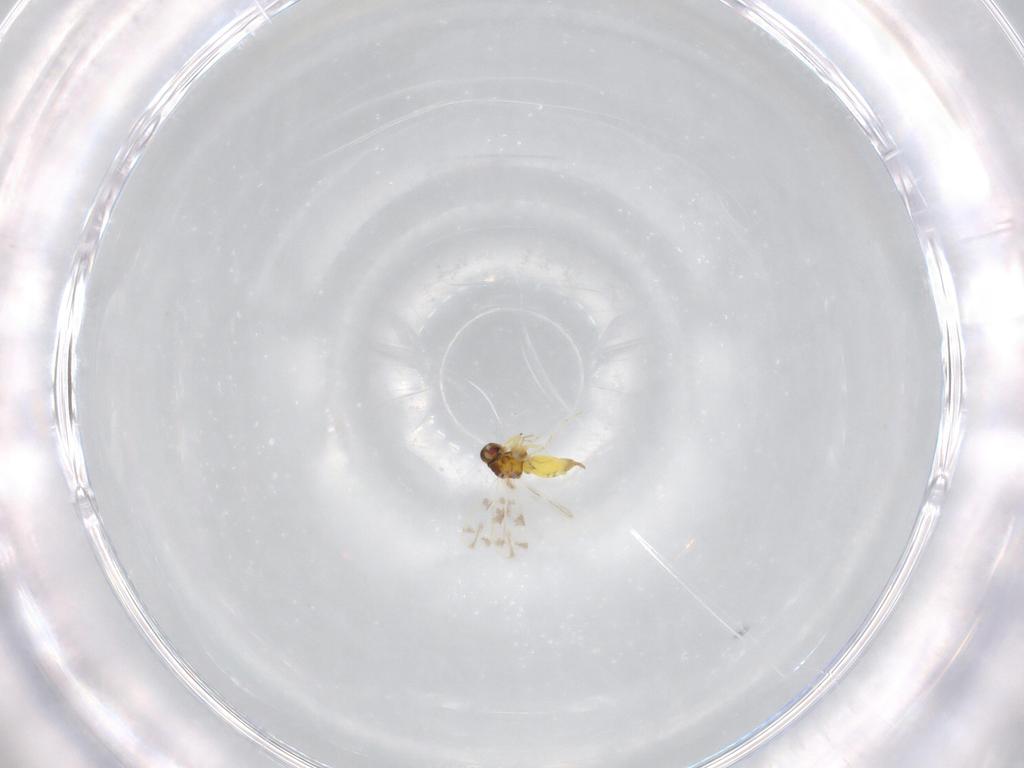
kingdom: Animalia
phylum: Arthropoda
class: Insecta
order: Hemiptera
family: Aleyrodidae
